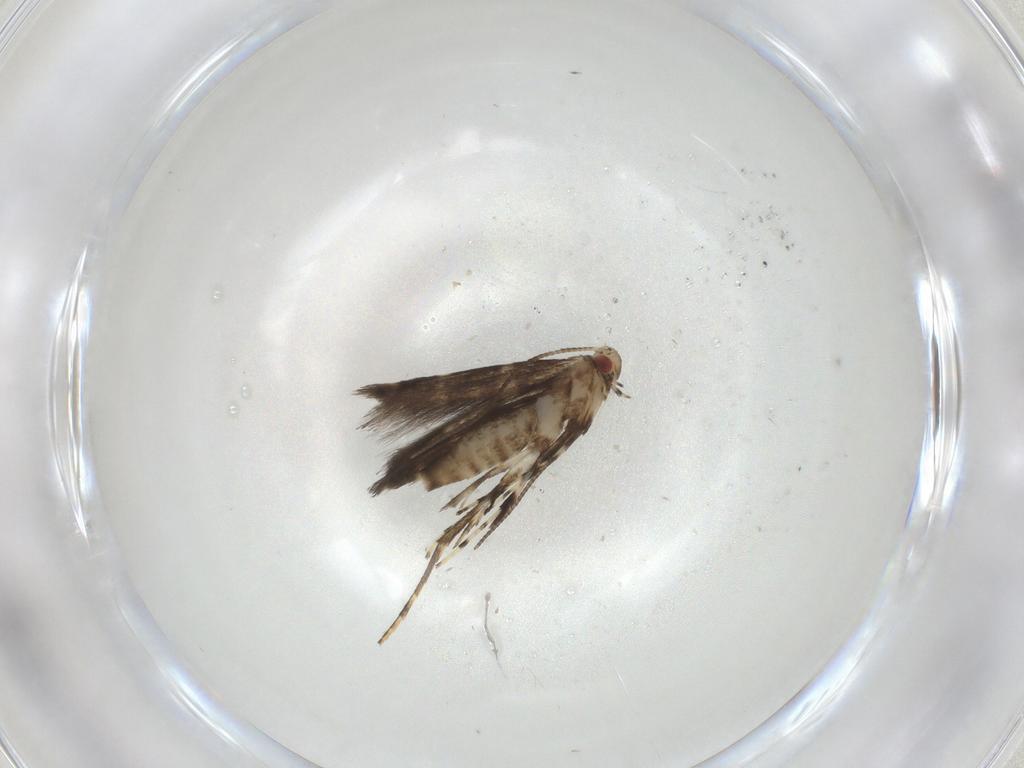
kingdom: Animalia
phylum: Arthropoda
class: Insecta
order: Lepidoptera
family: Gracillariidae
